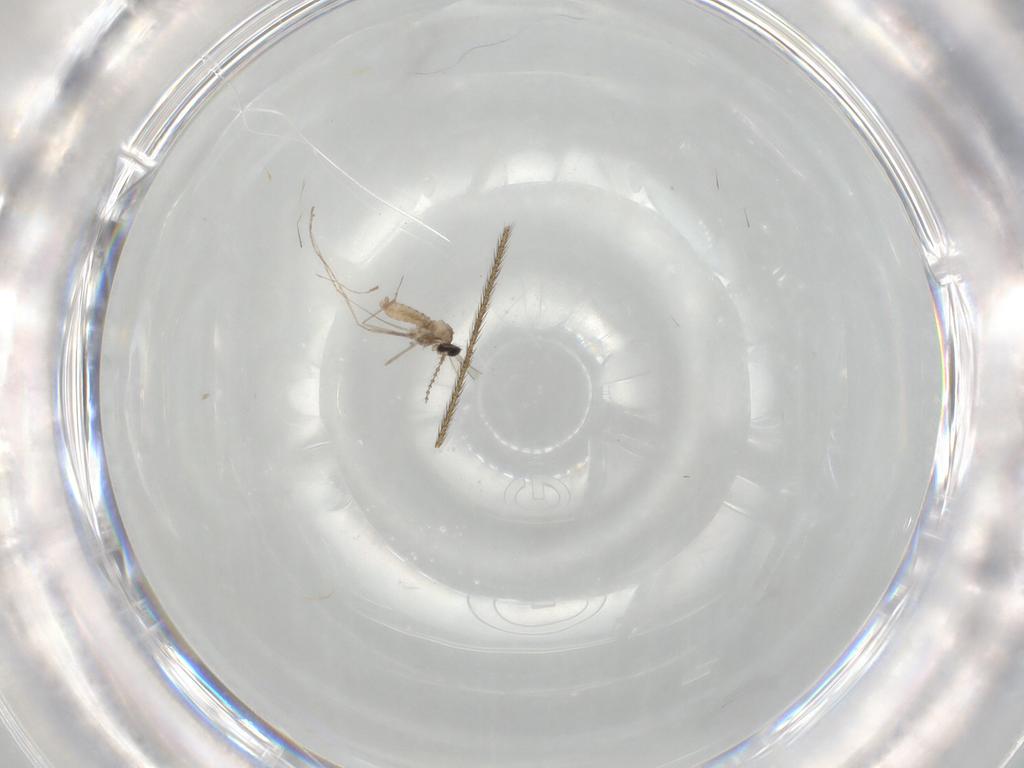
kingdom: Animalia
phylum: Arthropoda
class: Insecta
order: Diptera
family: Cecidomyiidae
